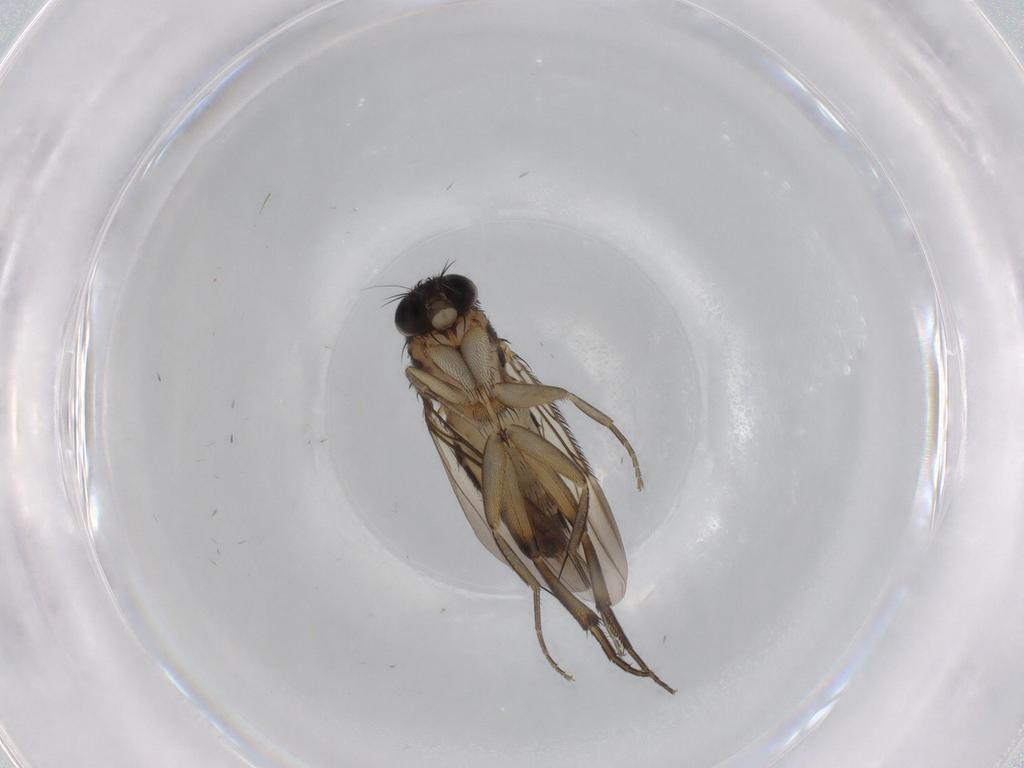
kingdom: Animalia
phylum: Arthropoda
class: Insecta
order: Diptera
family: Phoridae
